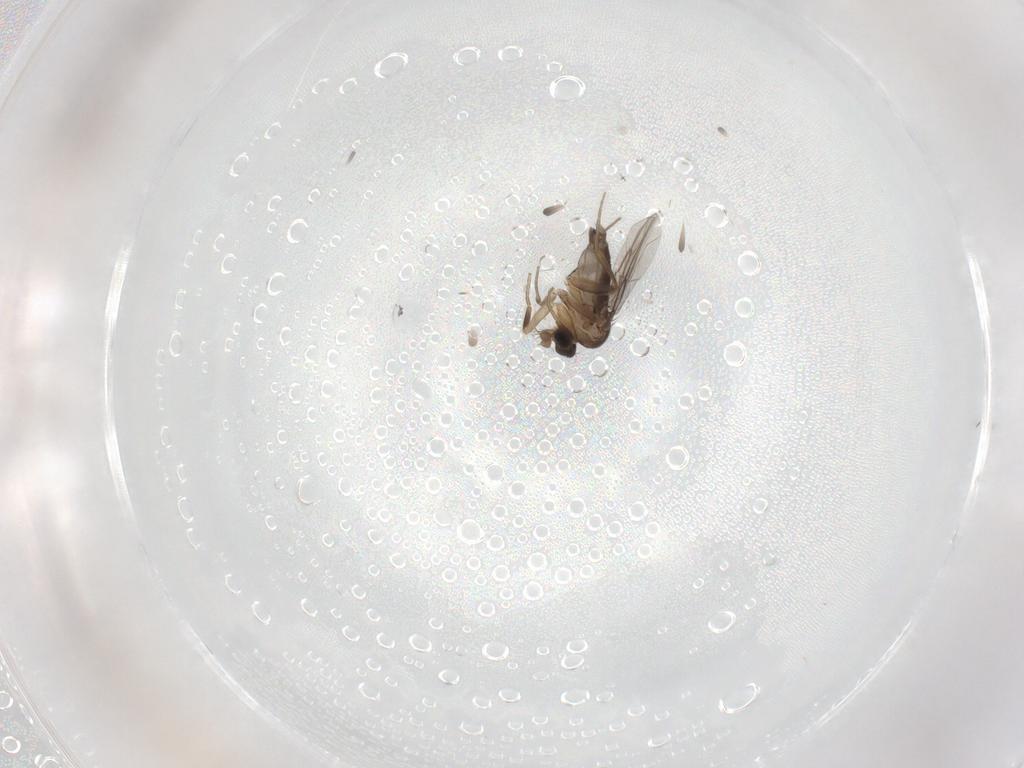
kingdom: Animalia
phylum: Arthropoda
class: Insecta
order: Diptera
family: Phoridae
